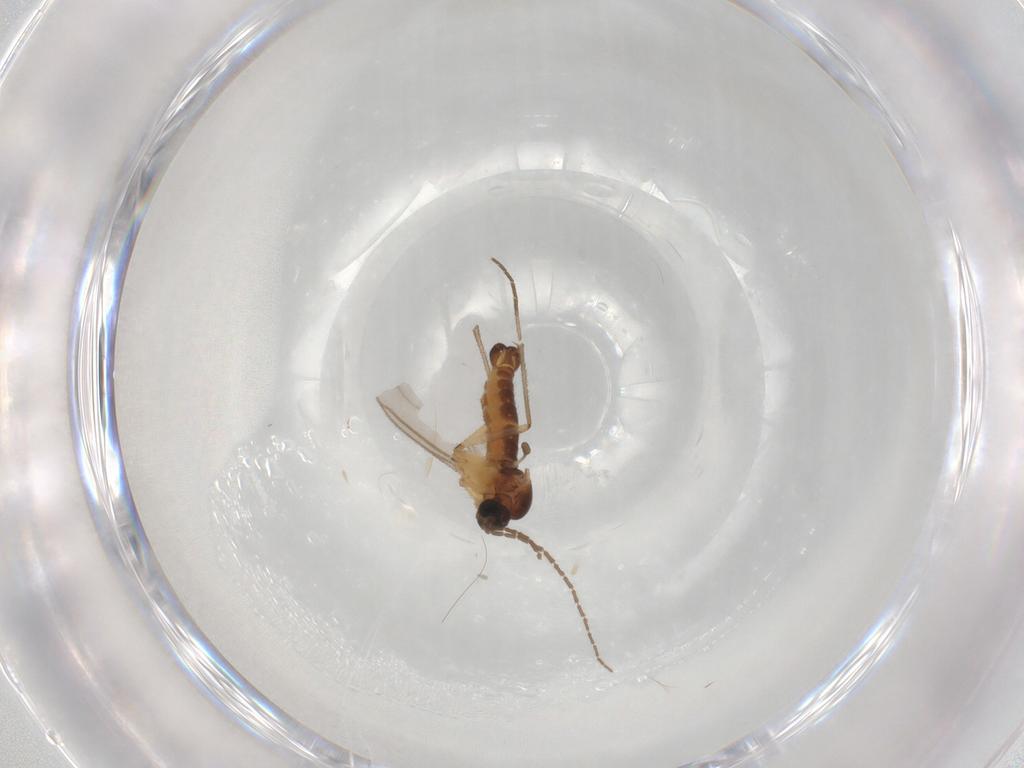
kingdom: Animalia
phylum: Arthropoda
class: Insecta
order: Diptera
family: Sciaridae
